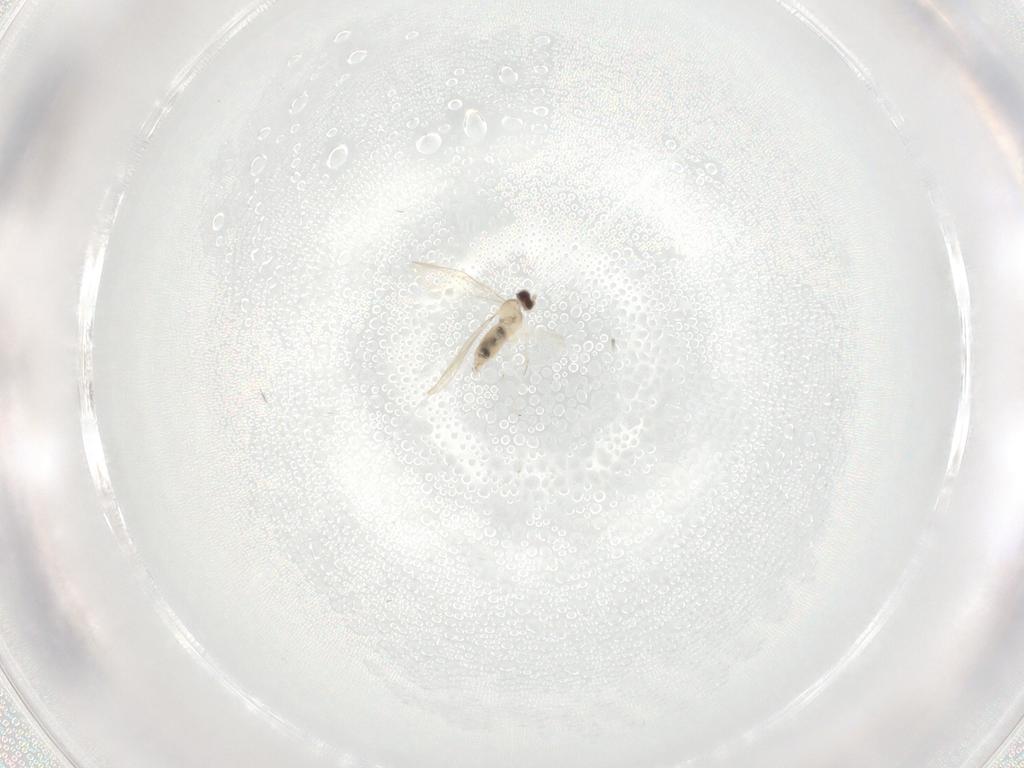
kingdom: Animalia
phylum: Arthropoda
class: Insecta
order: Diptera
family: Cecidomyiidae
